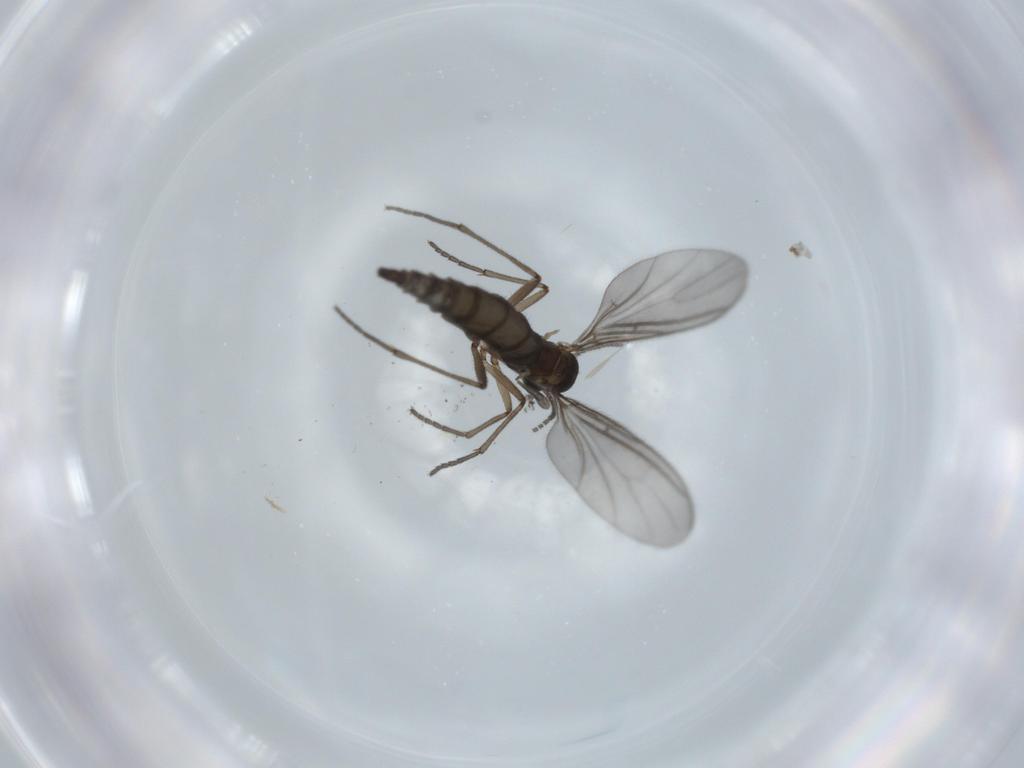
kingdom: Animalia
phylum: Arthropoda
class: Insecta
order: Diptera
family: Sciaridae
